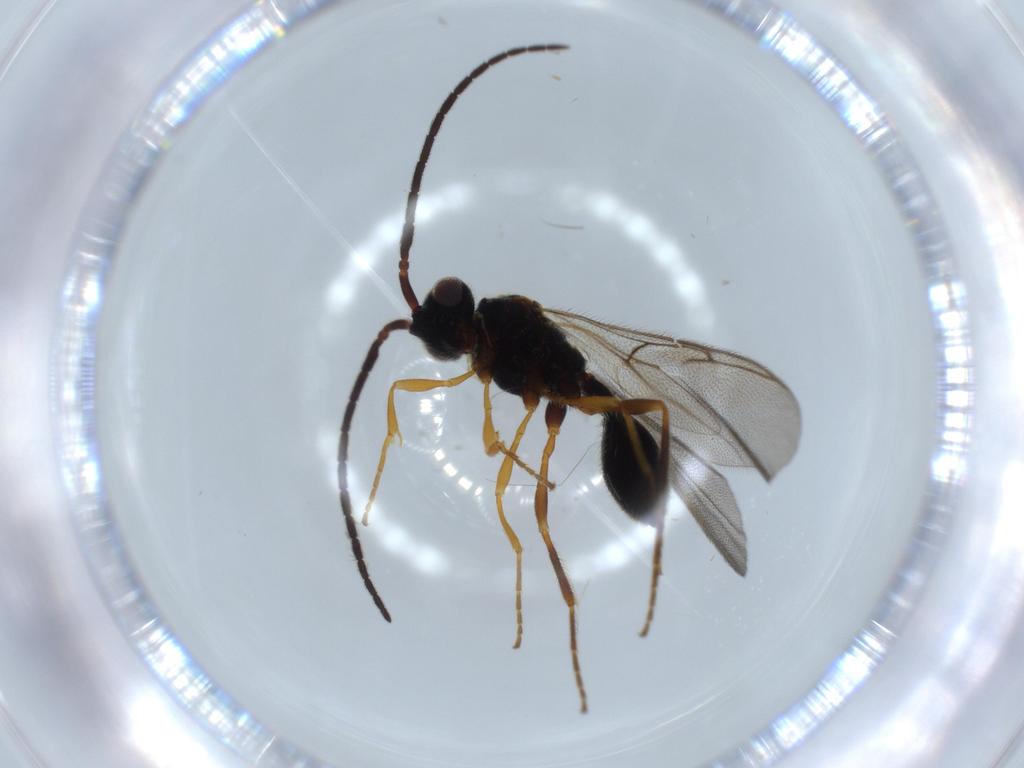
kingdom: Animalia
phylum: Arthropoda
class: Insecta
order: Hymenoptera
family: Diapriidae
